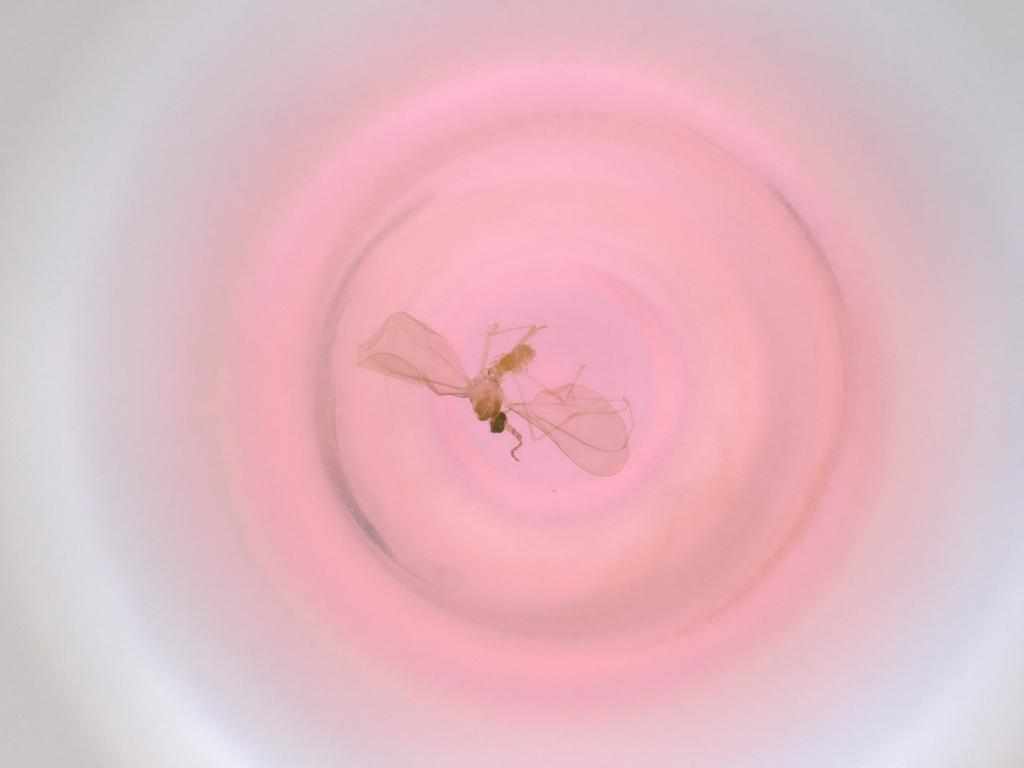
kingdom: Animalia
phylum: Arthropoda
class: Insecta
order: Diptera
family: Cecidomyiidae
